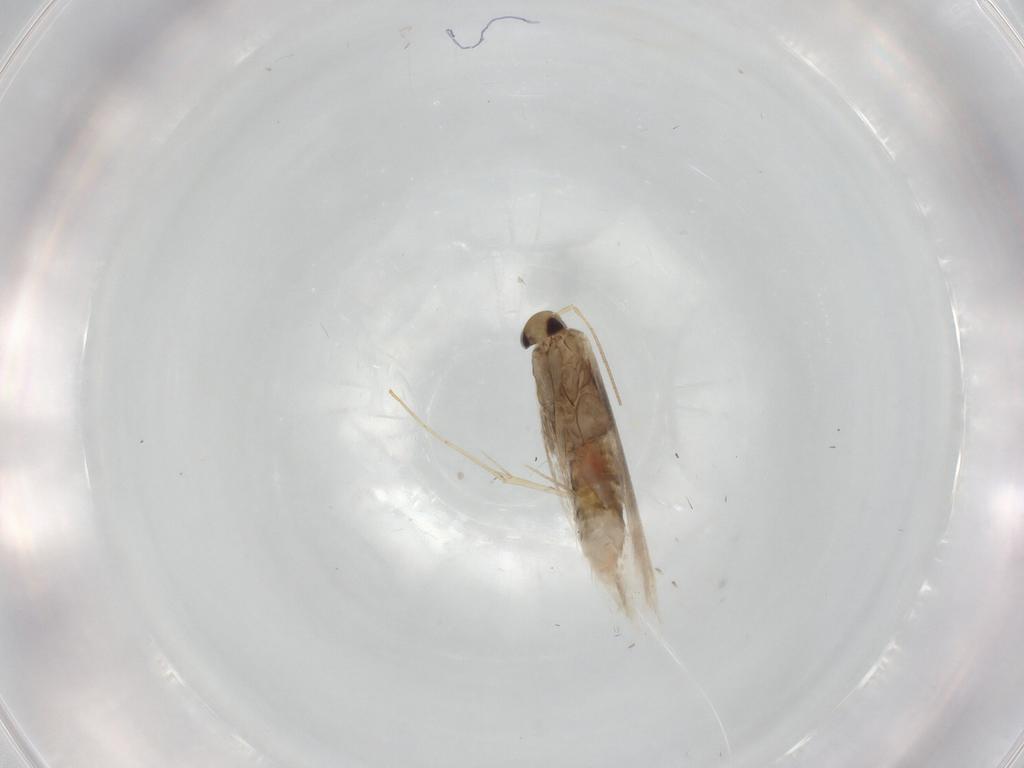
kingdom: Animalia
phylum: Arthropoda
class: Insecta
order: Lepidoptera
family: Gracillariidae
